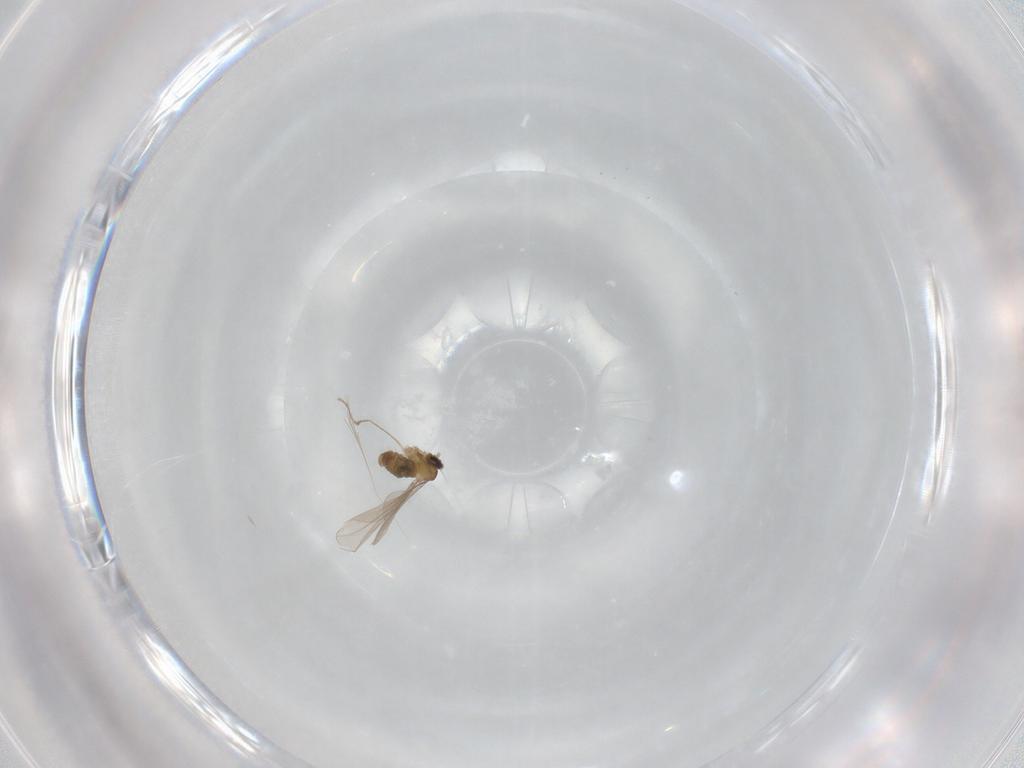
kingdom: Animalia
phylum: Arthropoda
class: Insecta
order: Diptera
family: Cecidomyiidae
